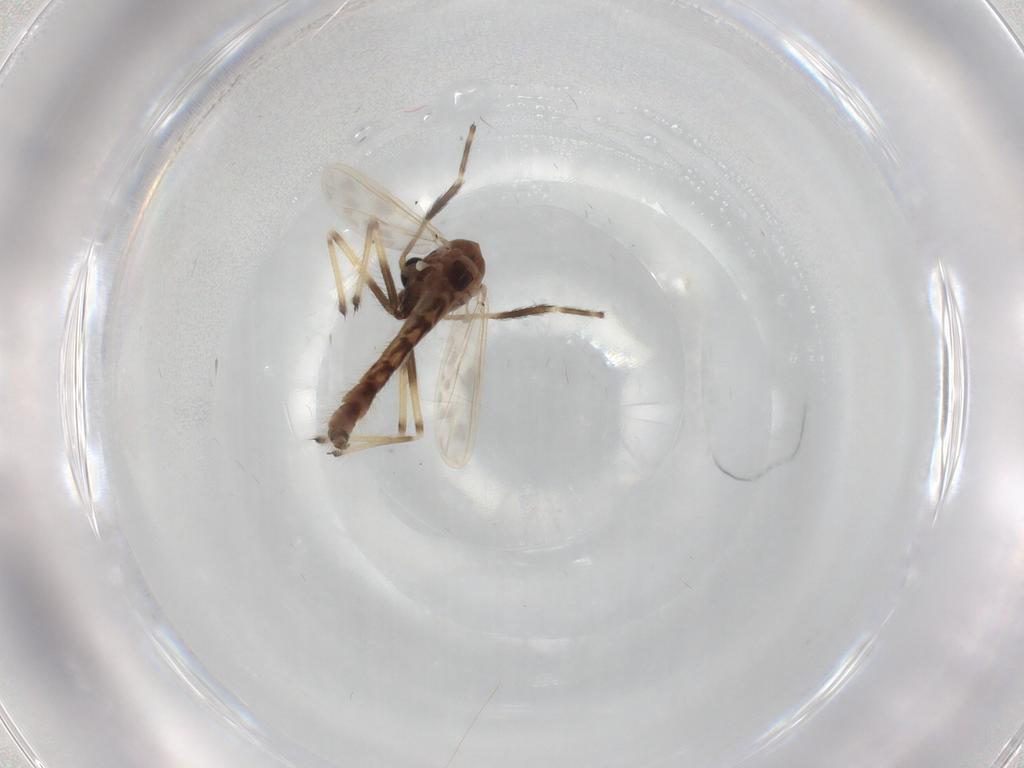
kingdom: Animalia
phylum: Arthropoda
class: Insecta
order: Diptera
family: Chironomidae
